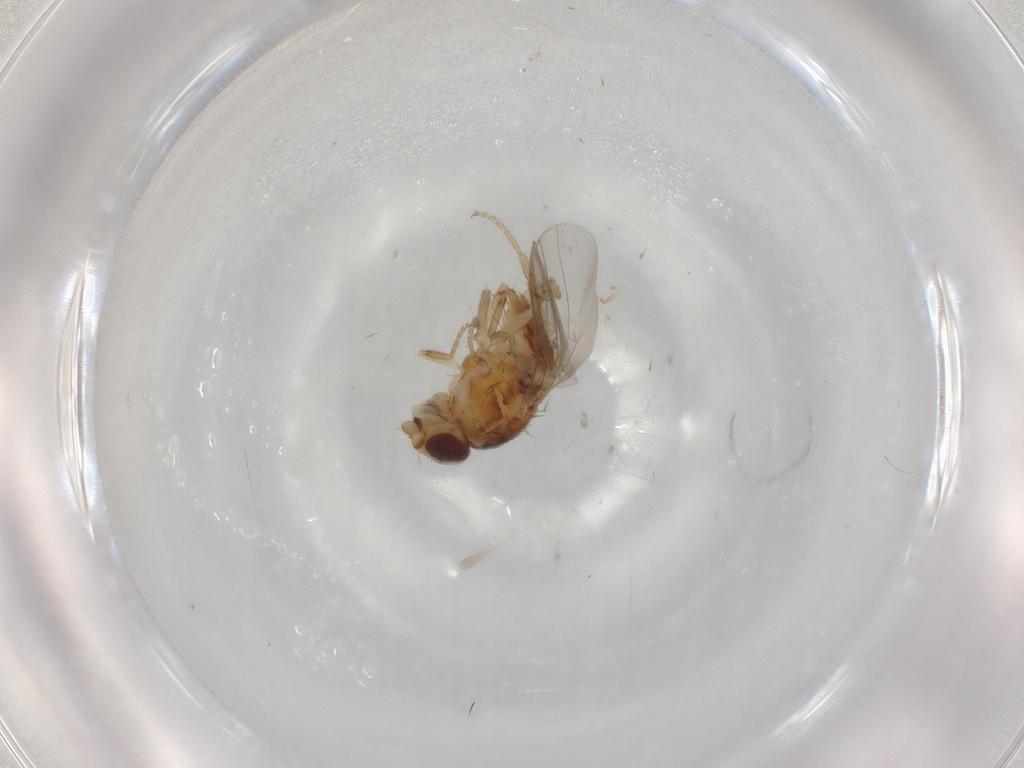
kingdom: Animalia
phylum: Arthropoda
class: Insecta
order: Diptera
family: Chloropidae
